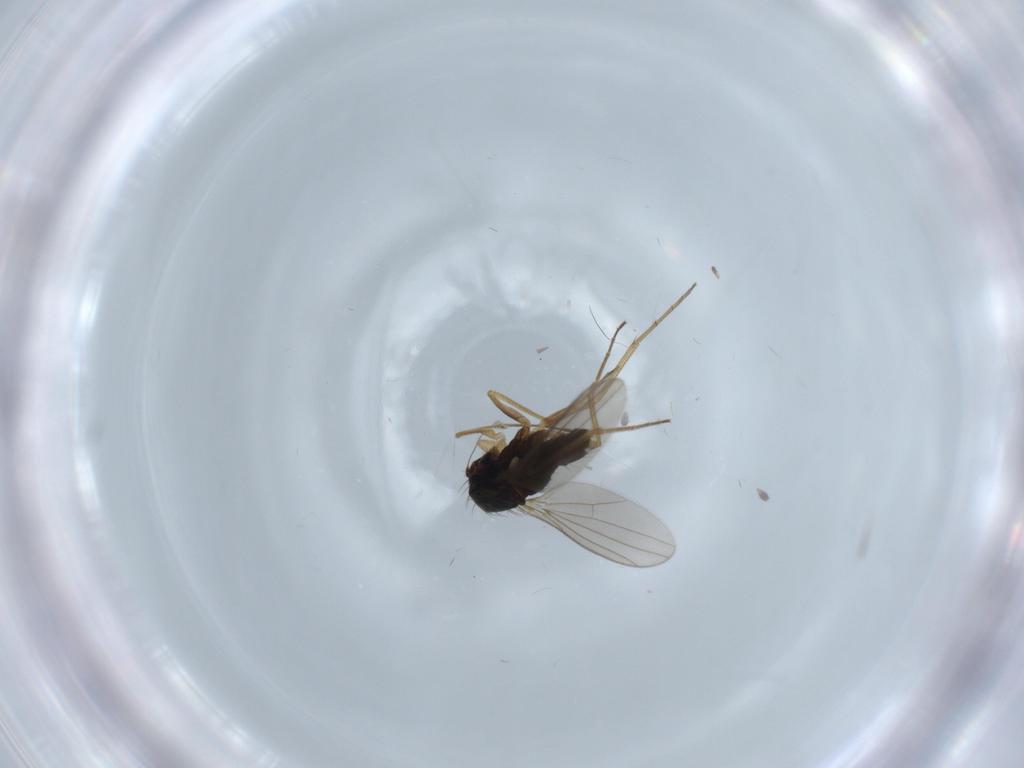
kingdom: Animalia
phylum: Arthropoda
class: Insecta
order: Diptera
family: Dolichopodidae
